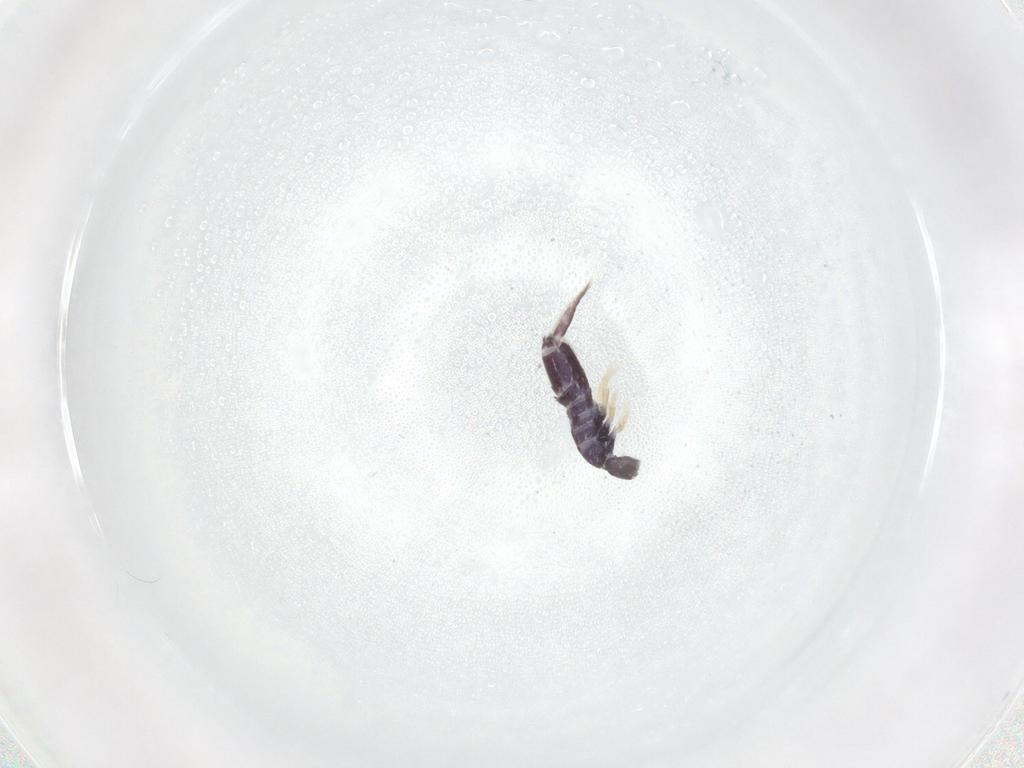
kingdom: Animalia
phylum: Arthropoda
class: Collembola
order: Entomobryomorpha
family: Entomobryidae
